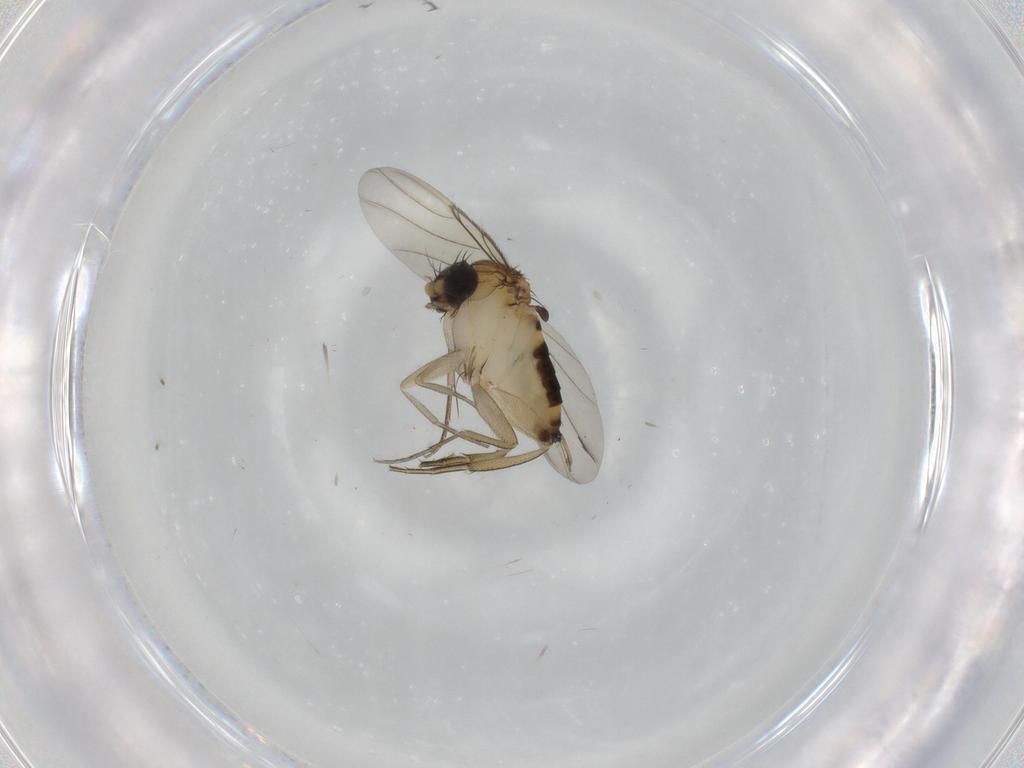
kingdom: Animalia
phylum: Arthropoda
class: Insecta
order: Diptera
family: Phoridae
